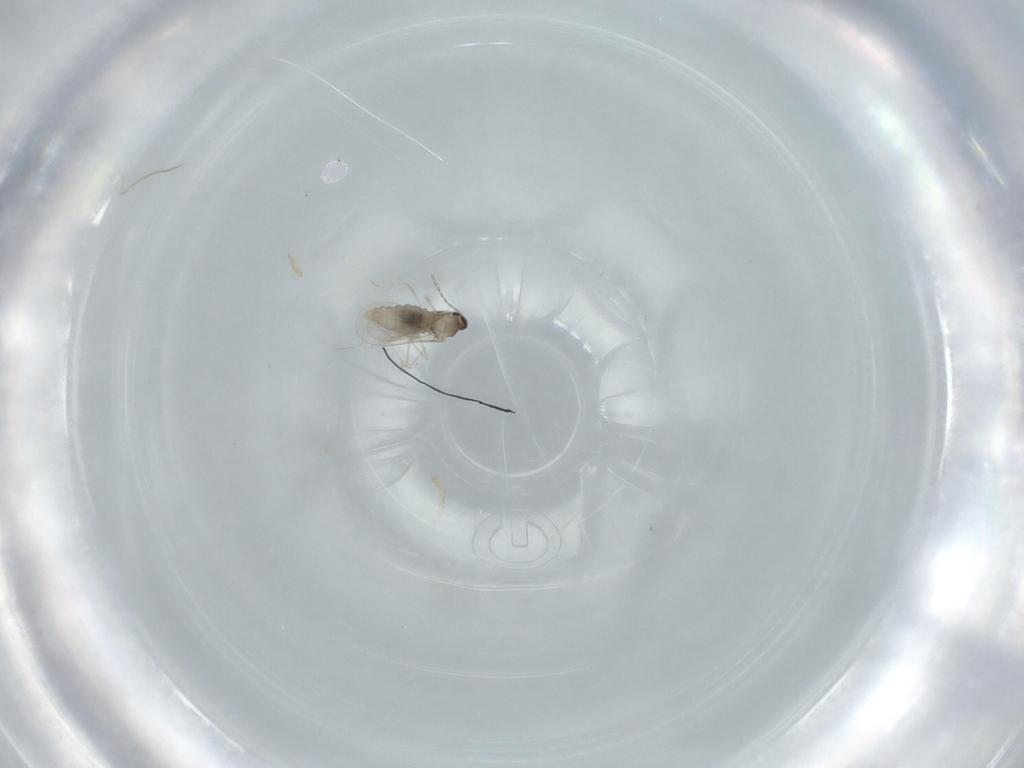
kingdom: Animalia
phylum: Arthropoda
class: Insecta
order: Diptera
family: Cecidomyiidae
